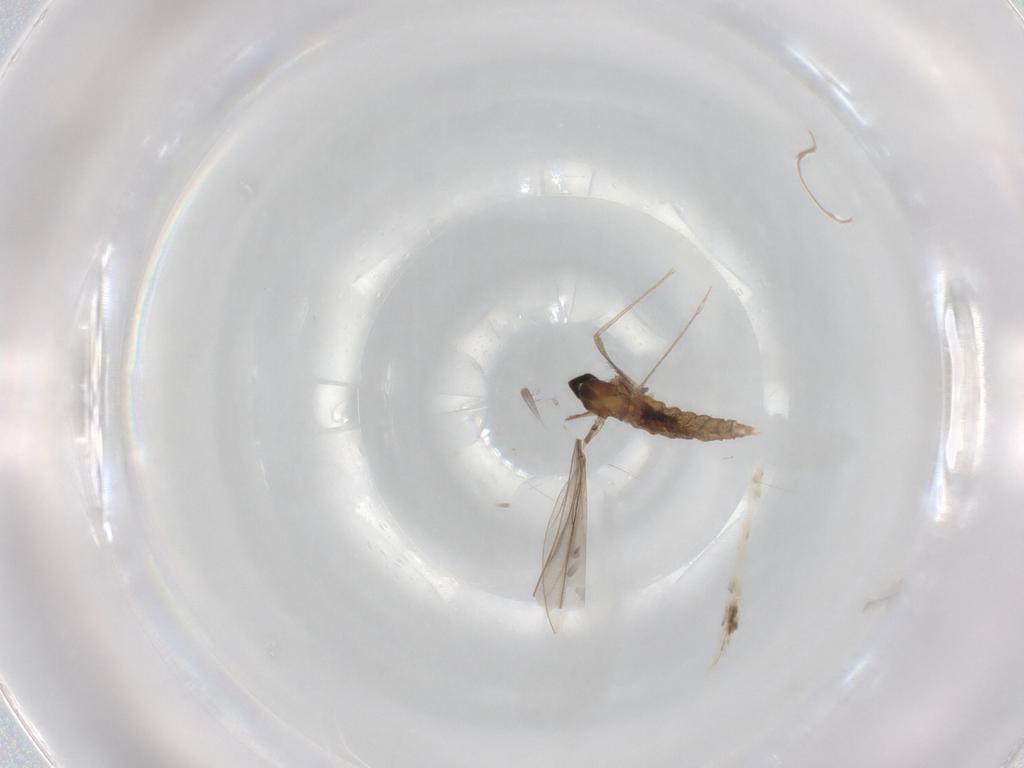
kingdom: Animalia
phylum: Arthropoda
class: Insecta
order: Diptera
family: Cecidomyiidae
